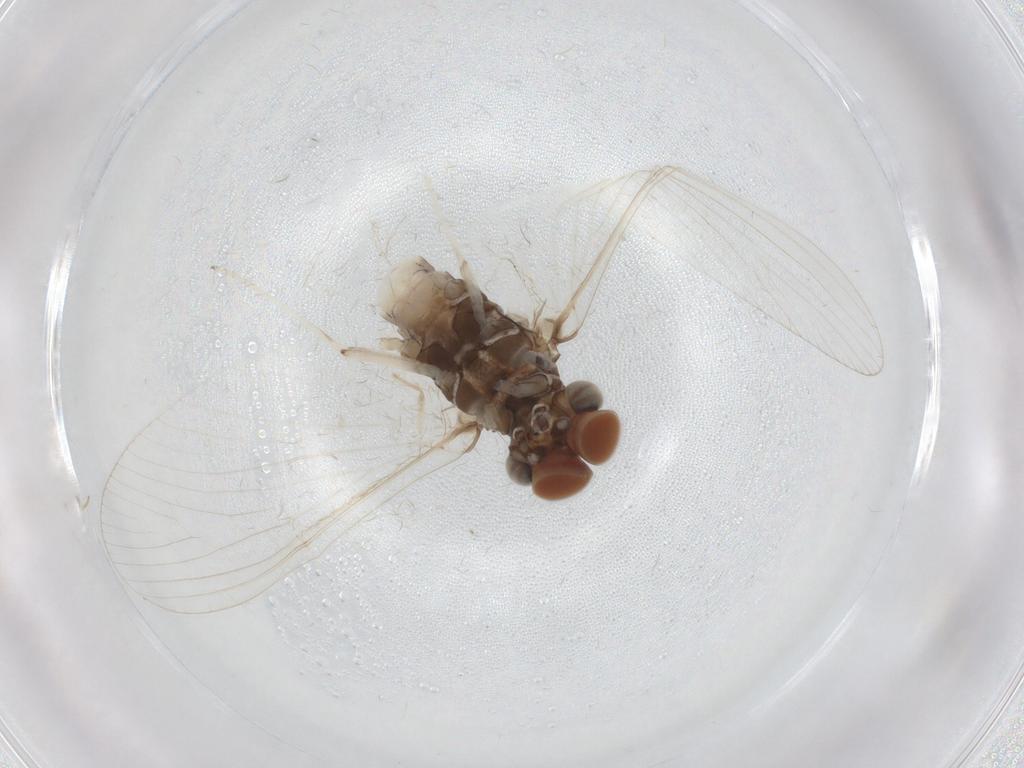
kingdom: Animalia
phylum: Arthropoda
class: Insecta
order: Diptera
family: Chironomidae
